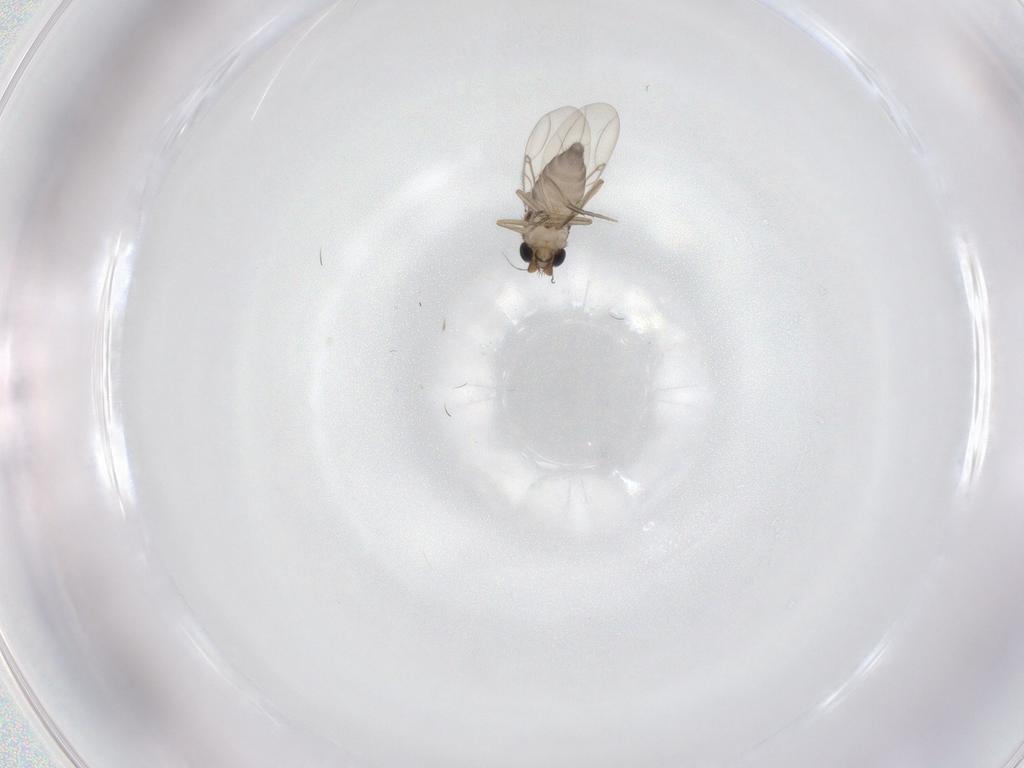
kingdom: Animalia
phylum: Arthropoda
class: Insecta
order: Diptera
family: Phoridae
